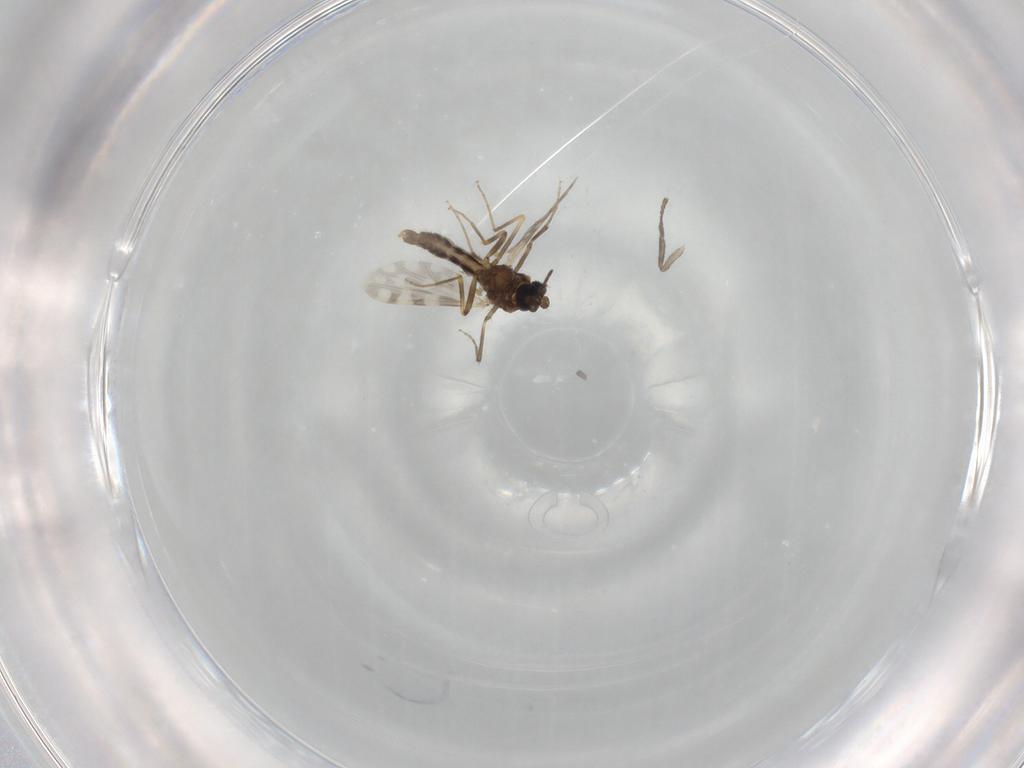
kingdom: Animalia
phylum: Arthropoda
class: Insecta
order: Diptera
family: Ceratopogonidae
